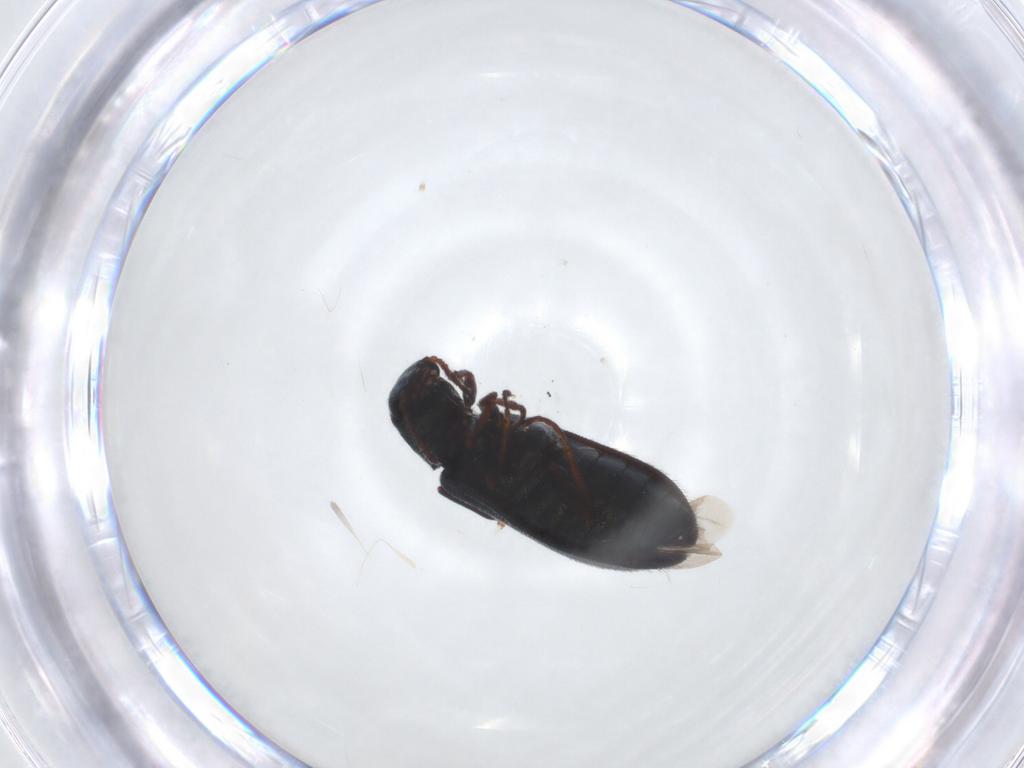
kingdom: Animalia
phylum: Arthropoda
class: Insecta
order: Coleoptera
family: Melyridae
